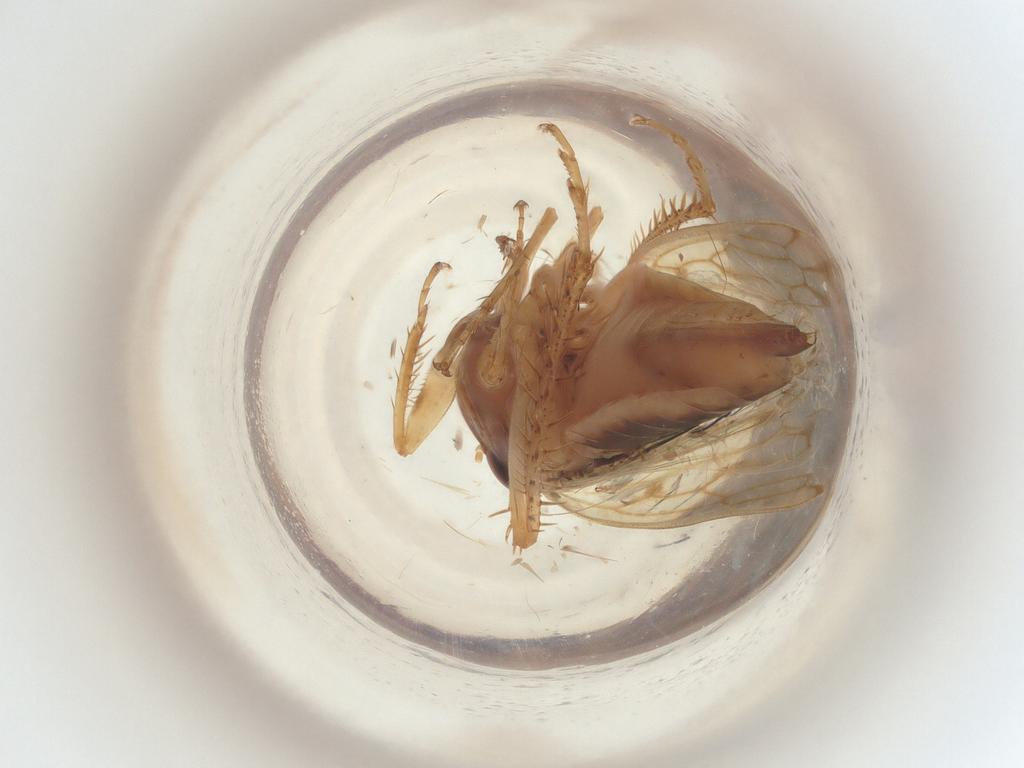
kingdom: Animalia
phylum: Arthropoda
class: Insecta
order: Hemiptera
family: Cicadellidae
